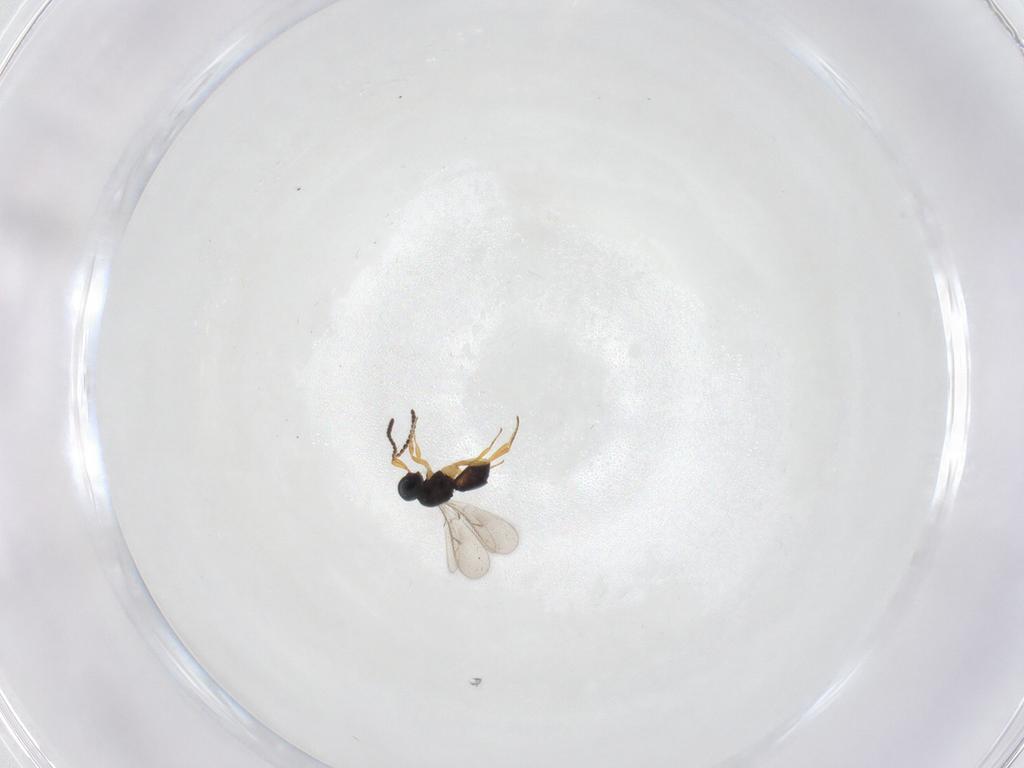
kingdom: Animalia
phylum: Arthropoda
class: Insecta
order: Hymenoptera
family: Scelionidae
